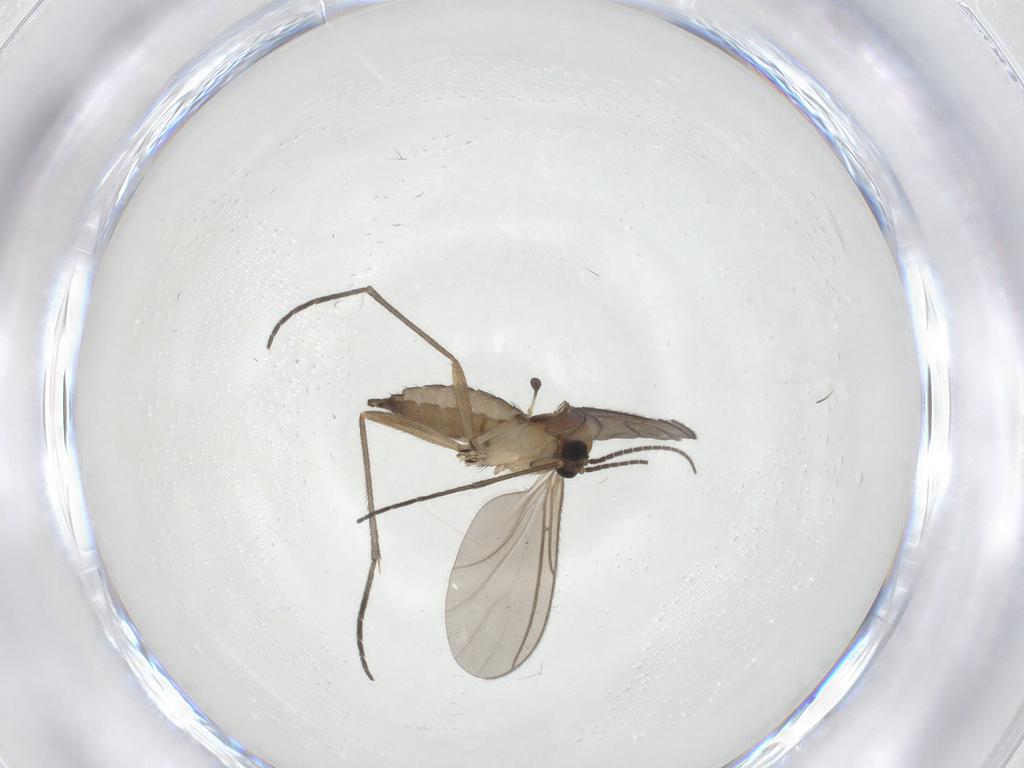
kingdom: Animalia
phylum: Arthropoda
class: Insecta
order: Diptera
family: Sciaridae
